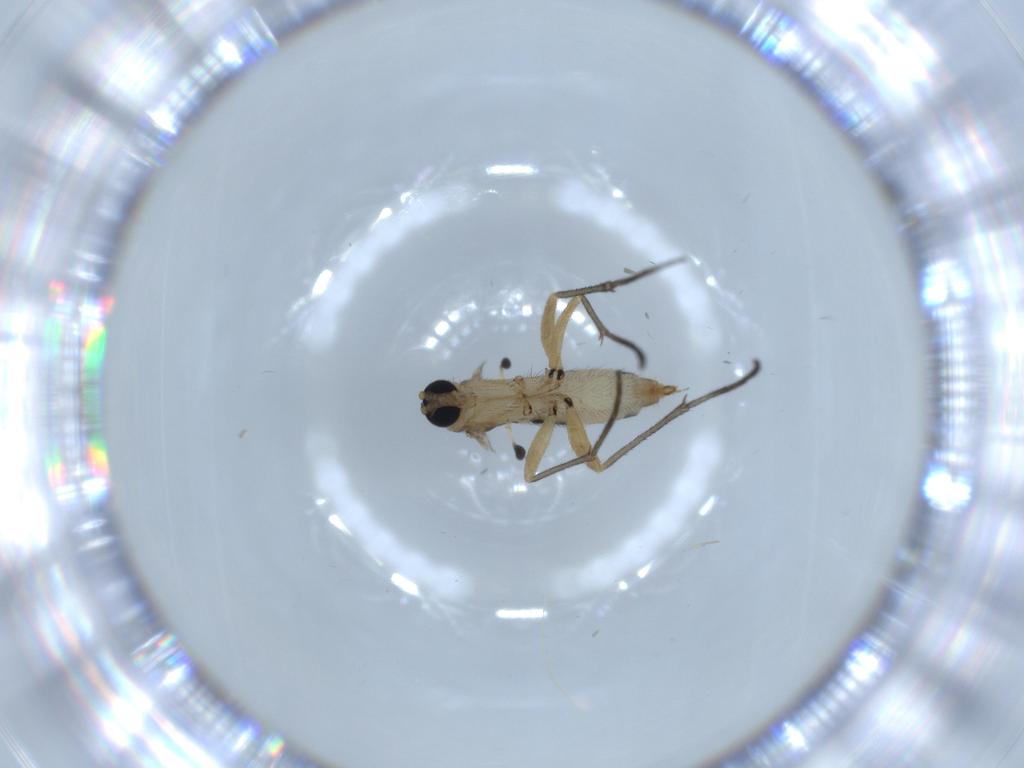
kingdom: Animalia
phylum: Arthropoda
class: Insecta
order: Diptera
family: Sciaridae
